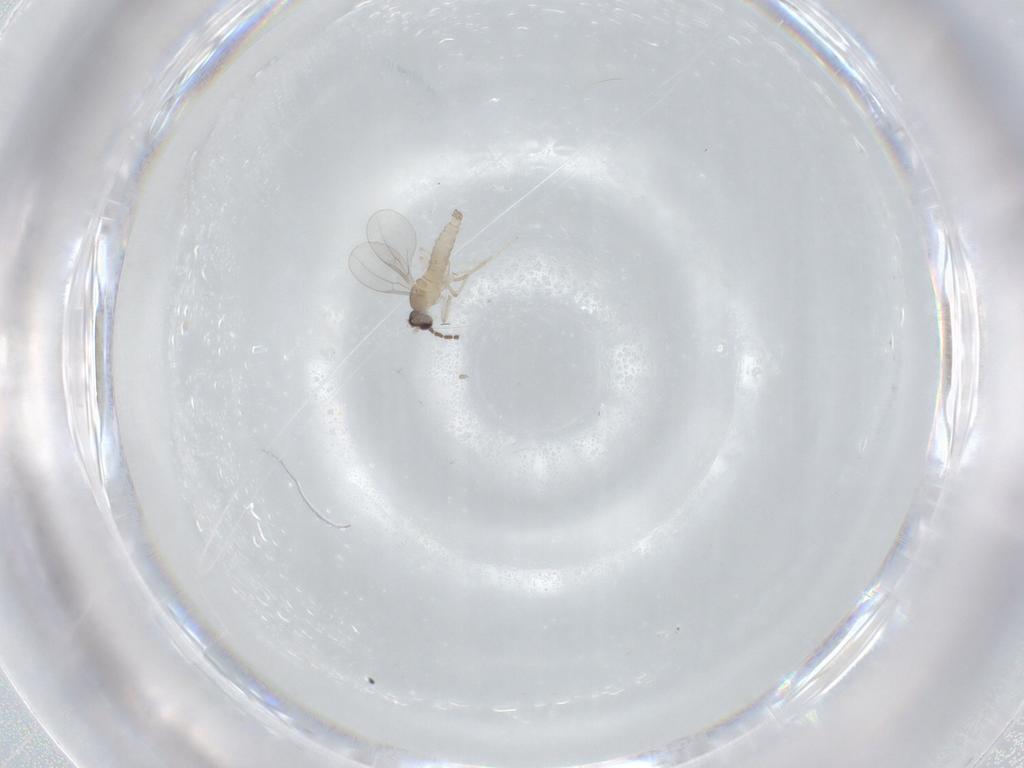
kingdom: Animalia
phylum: Arthropoda
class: Insecta
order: Diptera
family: Cecidomyiidae
